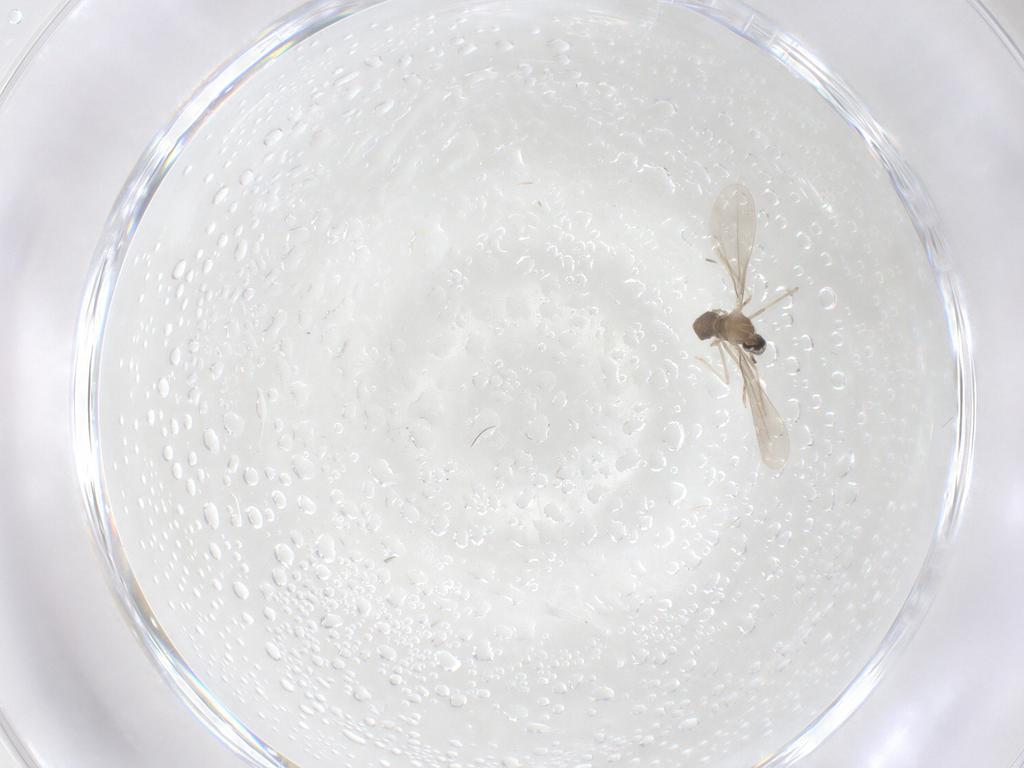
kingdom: Animalia
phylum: Arthropoda
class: Insecta
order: Diptera
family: Cecidomyiidae
